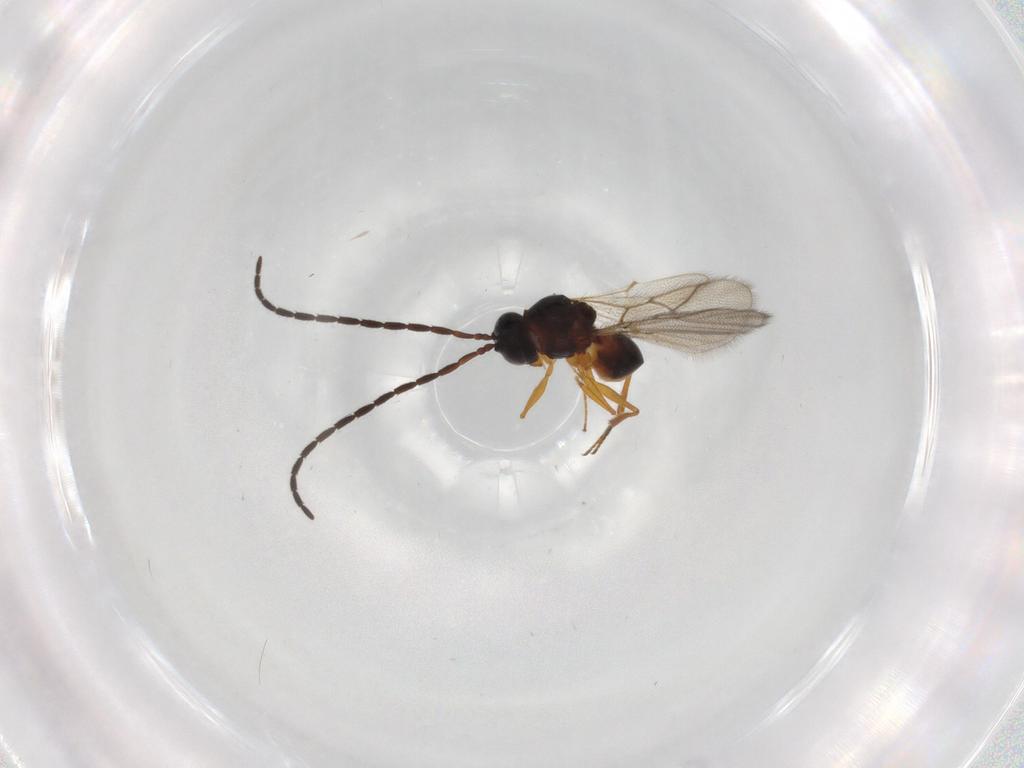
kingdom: Animalia
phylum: Arthropoda
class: Insecta
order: Hymenoptera
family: Figitidae
